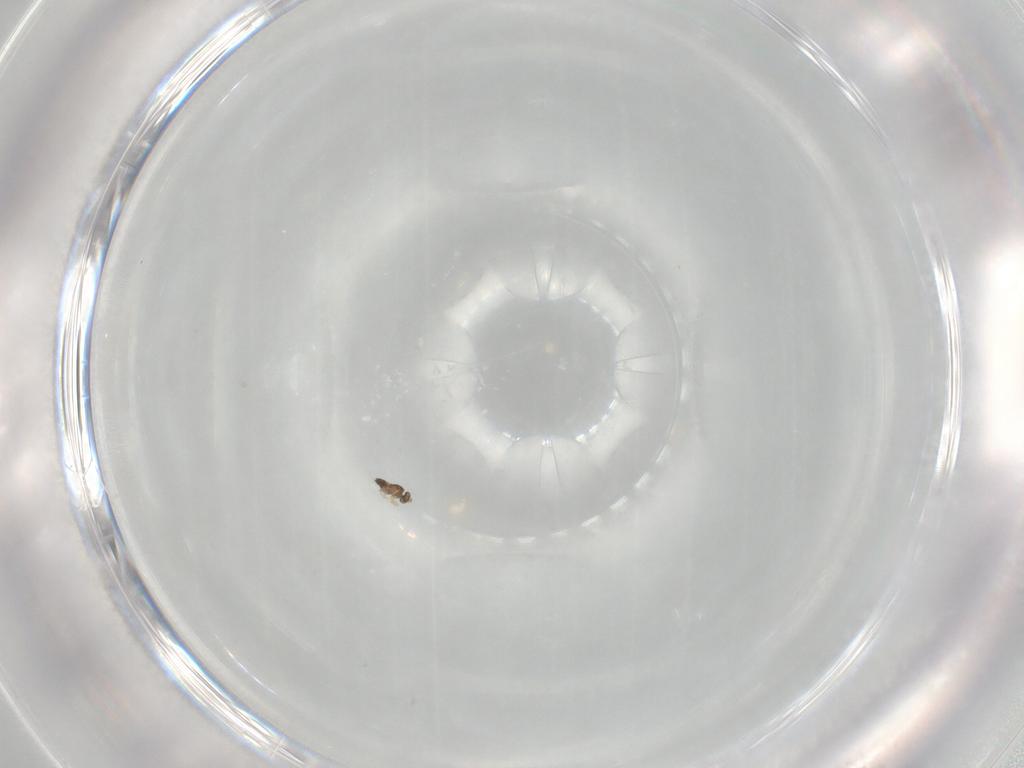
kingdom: Animalia
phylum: Arthropoda
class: Insecta
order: Hymenoptera
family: Mymaridae
